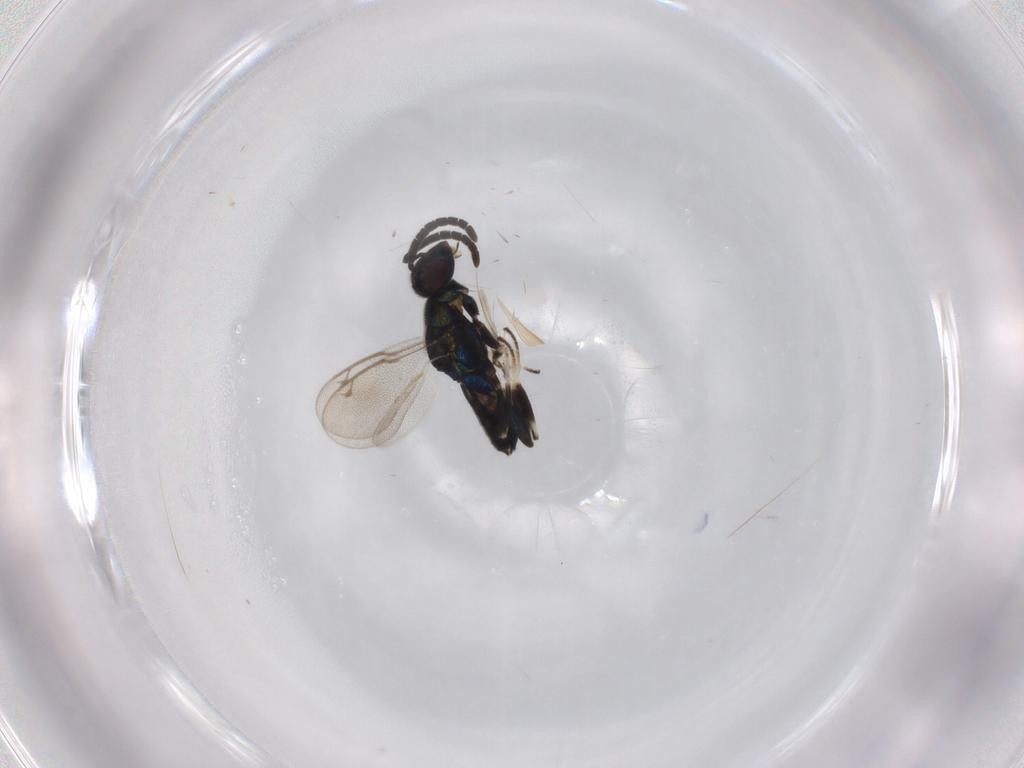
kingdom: Animalia
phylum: Arthropoda
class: Insecta
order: Hymenoptera
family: Eupelmidae
